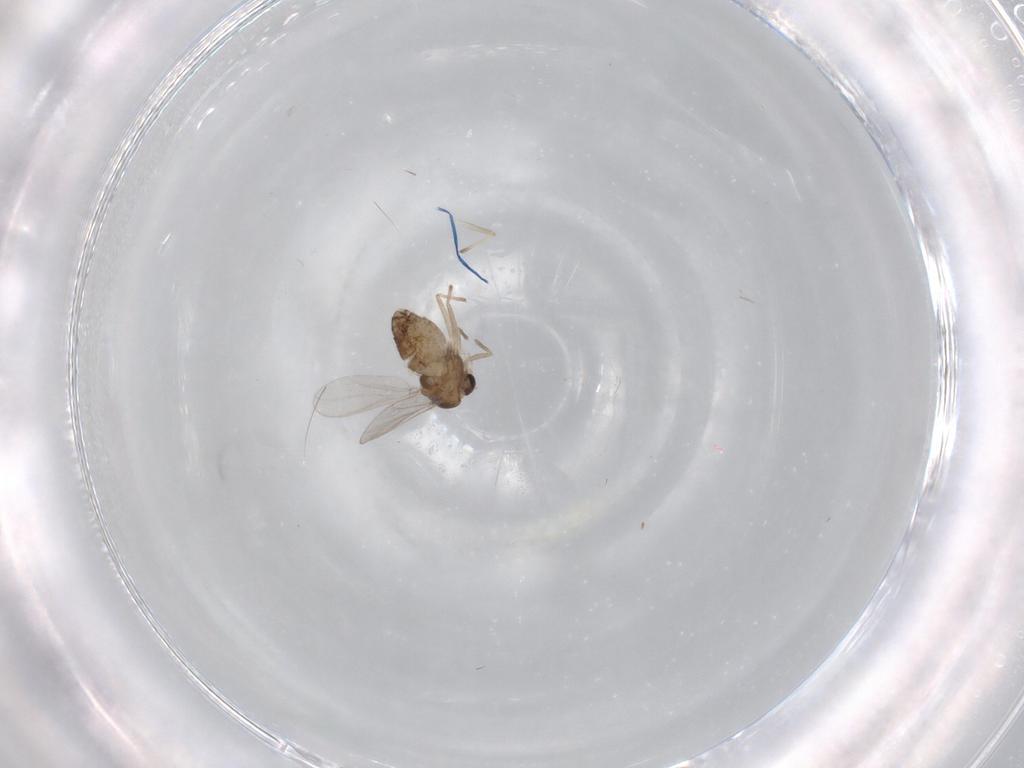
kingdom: Animalia
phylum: Arthropoda
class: Insecta
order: Diptera
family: Chironomidae
